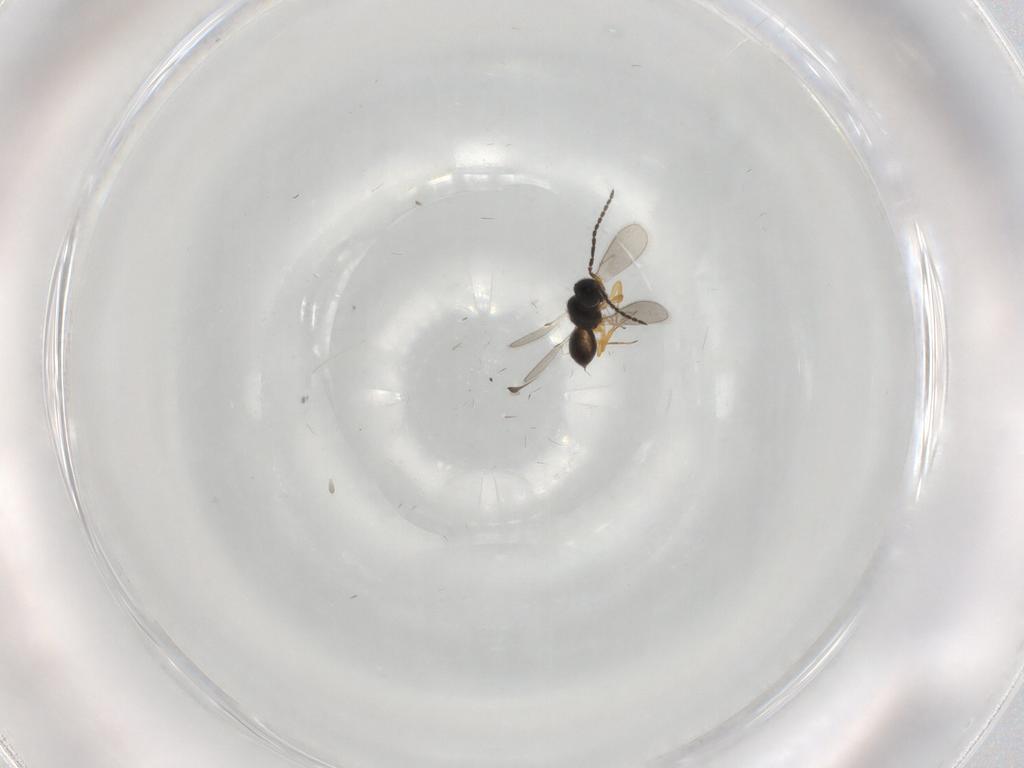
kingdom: Animalia
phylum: Arthropoda
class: Insecta
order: Hymenoptera
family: Scelionidae
